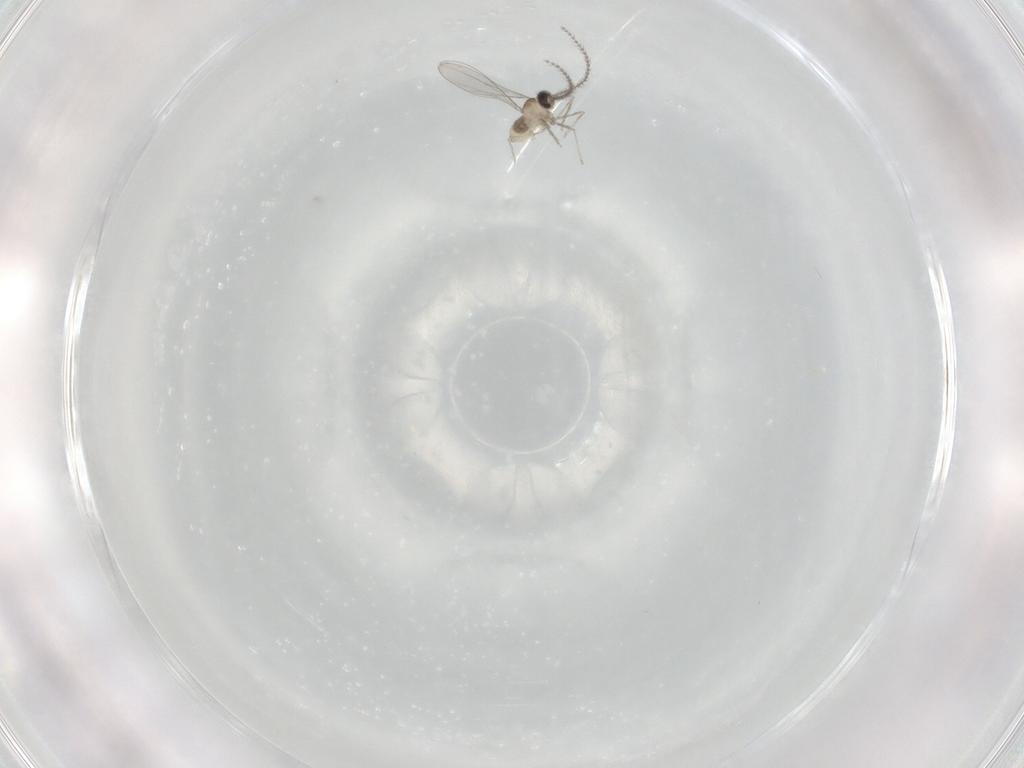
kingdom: Animalia
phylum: Arthropoda
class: Insecta
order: Diptera
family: Cecidomyiidae
